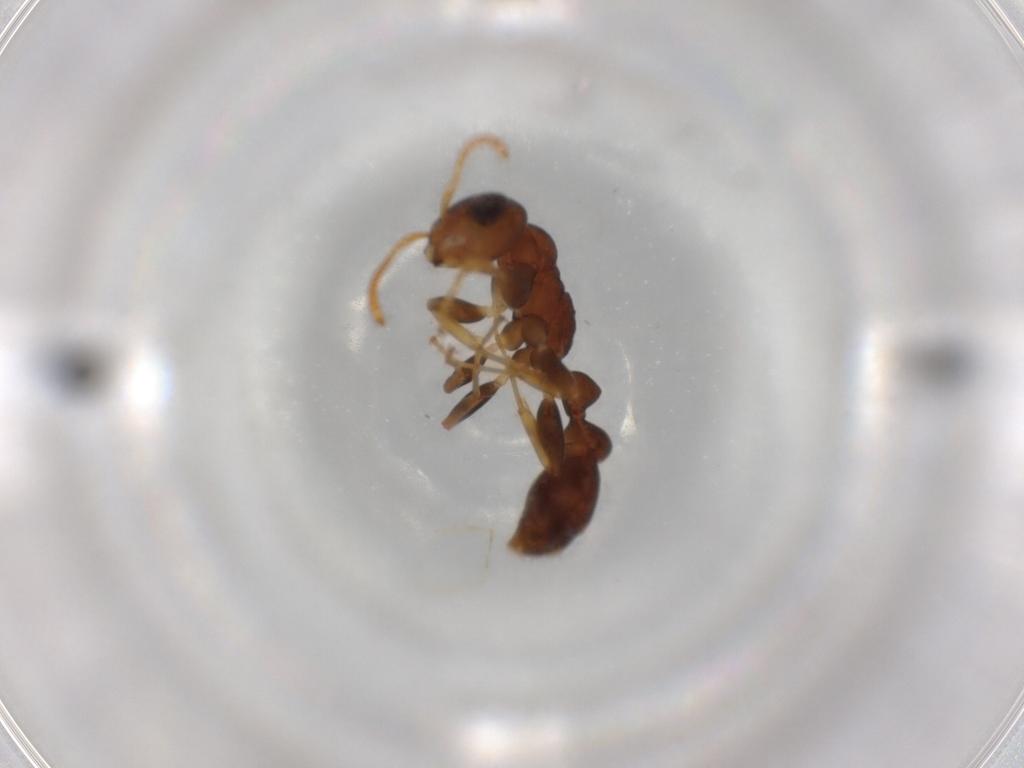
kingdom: Animalia
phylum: Arthropoda
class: Insecta
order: Hymenoptera
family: Formicidae
